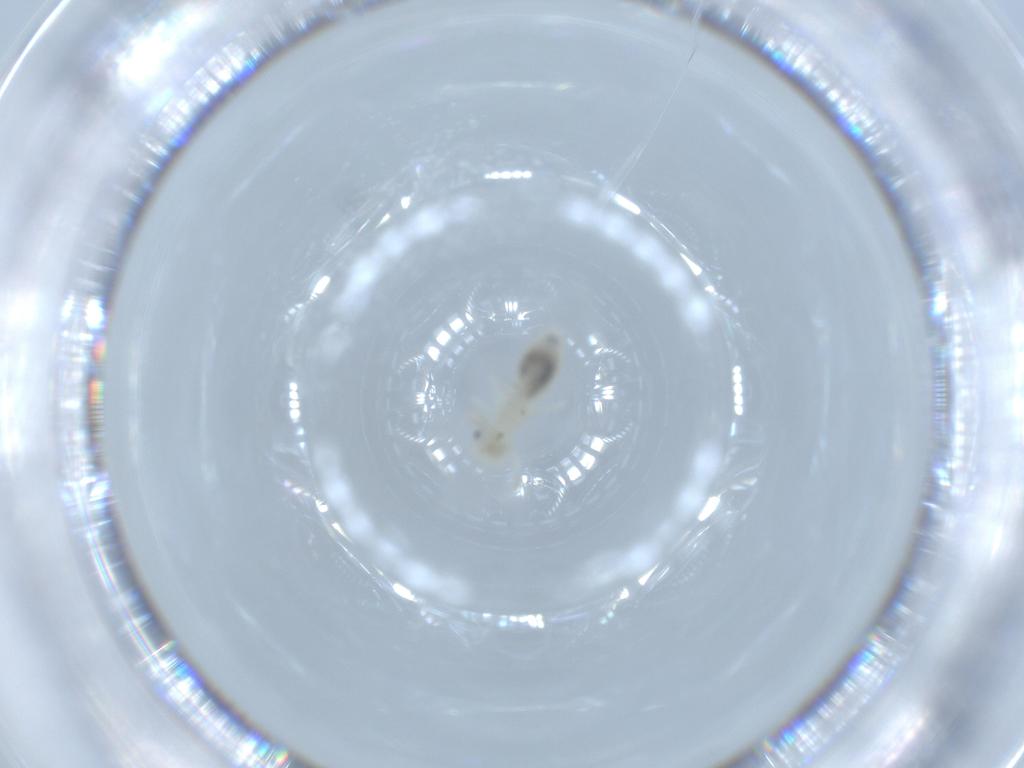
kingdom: Animalia
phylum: Arthropoda
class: Insecta
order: Psocodea
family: Caeciliusidae
